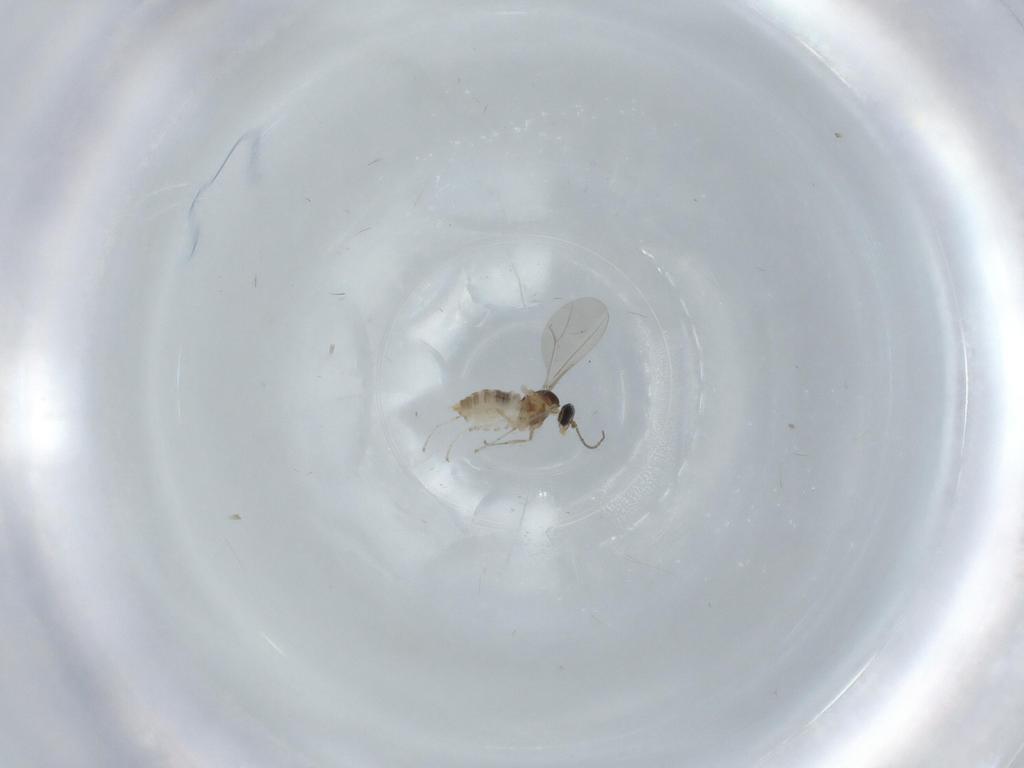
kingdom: Animalia
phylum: Arthropoda
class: Insecta
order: Diptera
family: Cecidomyiidae
